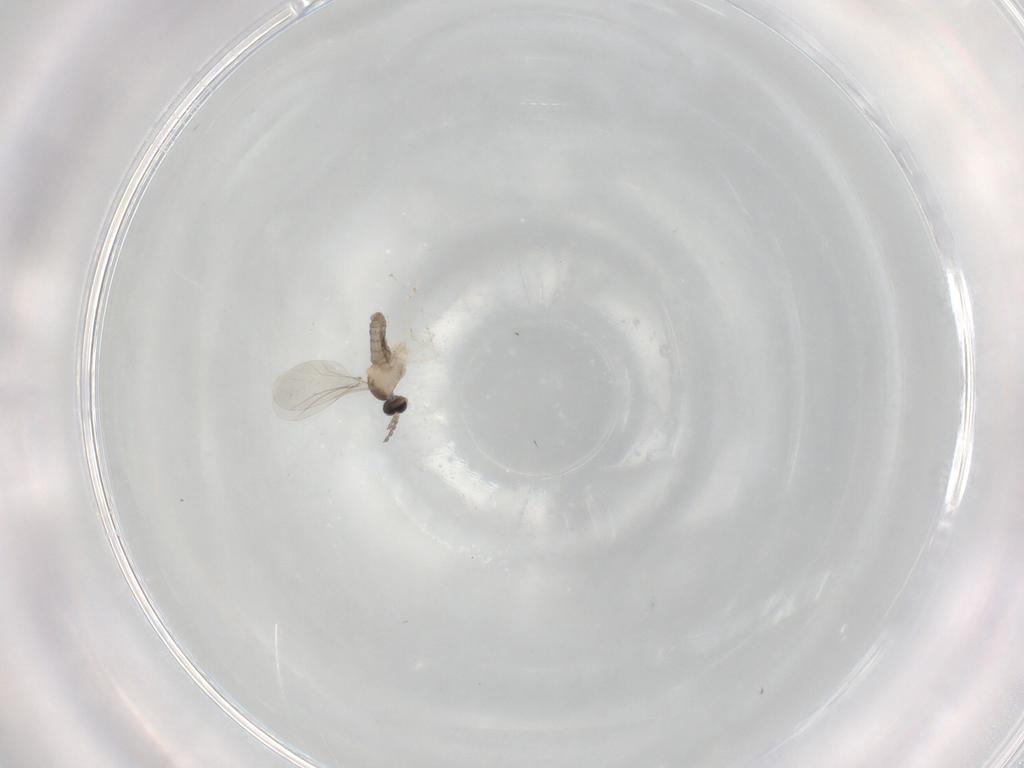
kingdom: Animalia
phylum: Arthropoda
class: Insecta
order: Diptera
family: Cecidomyiidae
